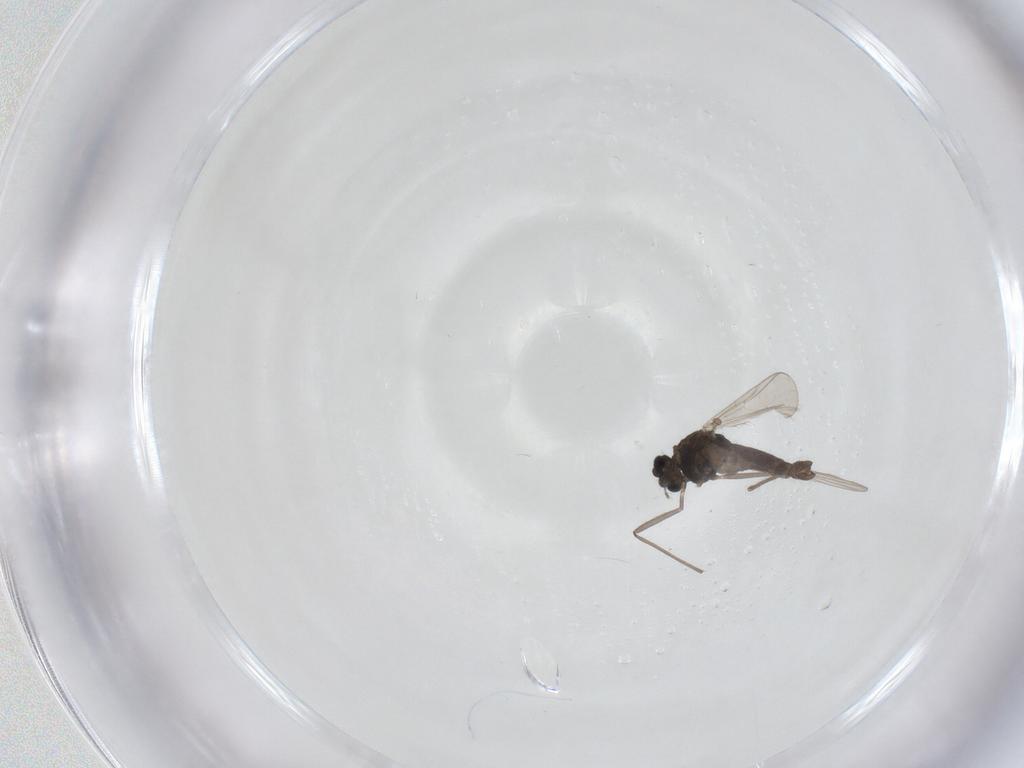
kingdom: Animalia
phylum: Arthropoda
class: Insecta
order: Diptera
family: Chironomidae
